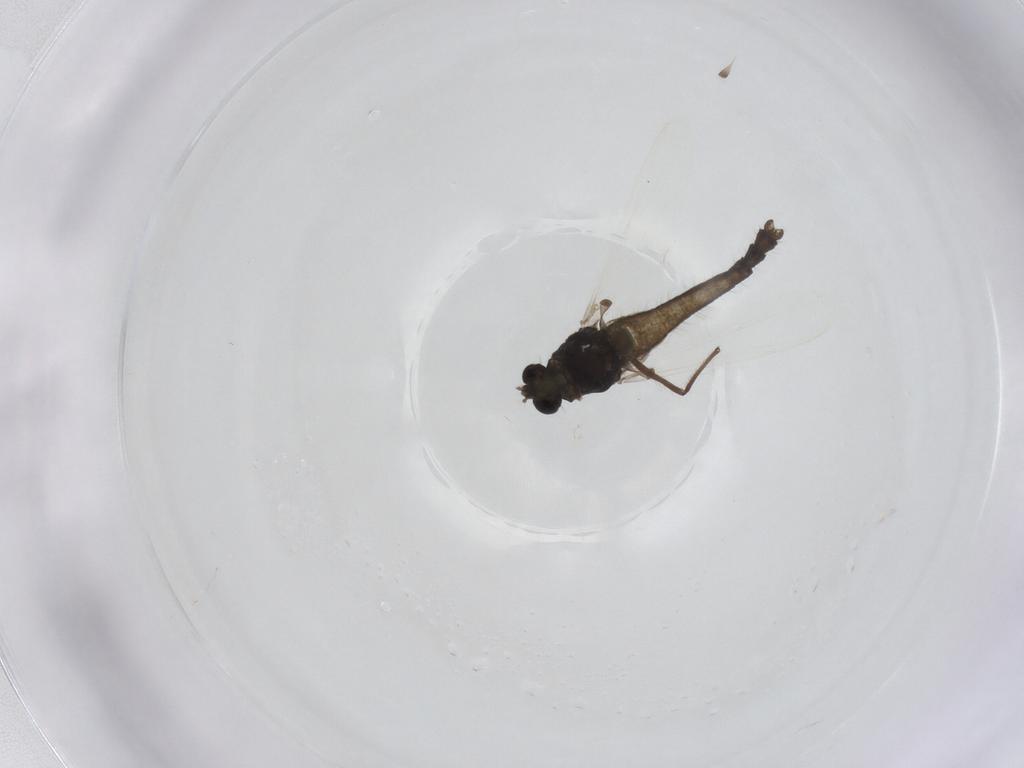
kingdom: Animalia
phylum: Arthropoda
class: Insecta
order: Diptera
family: Chironomidae
